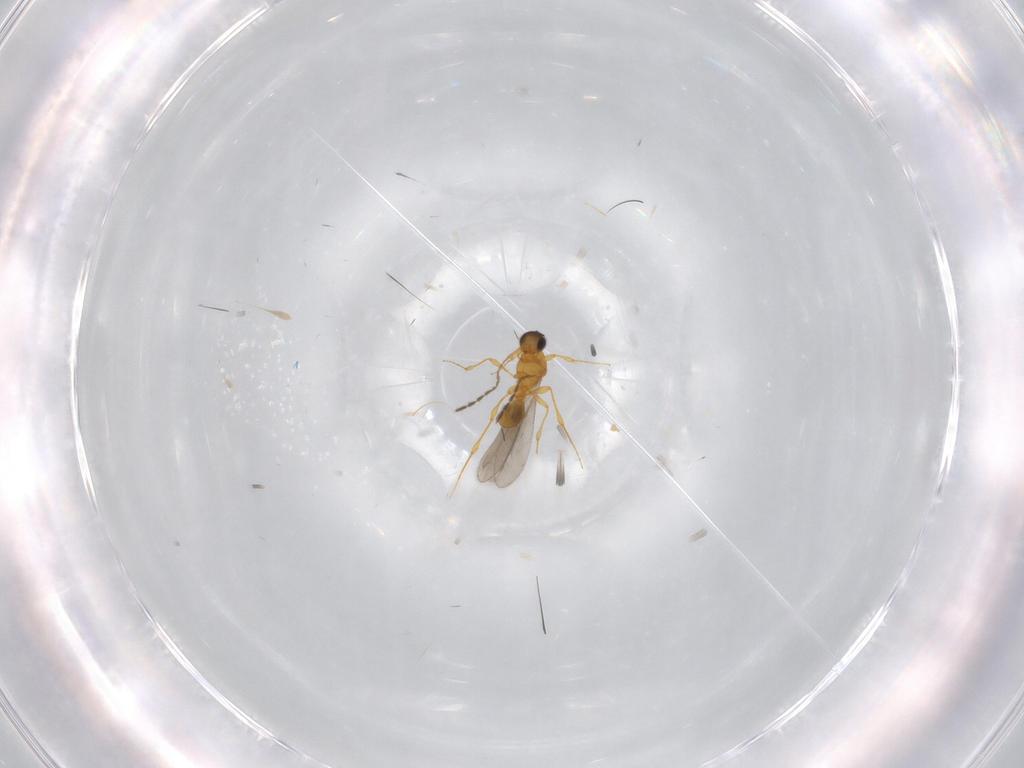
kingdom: Animalia
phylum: Arthropoda
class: Insecta
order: Hymenoptera
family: Platygastridae
